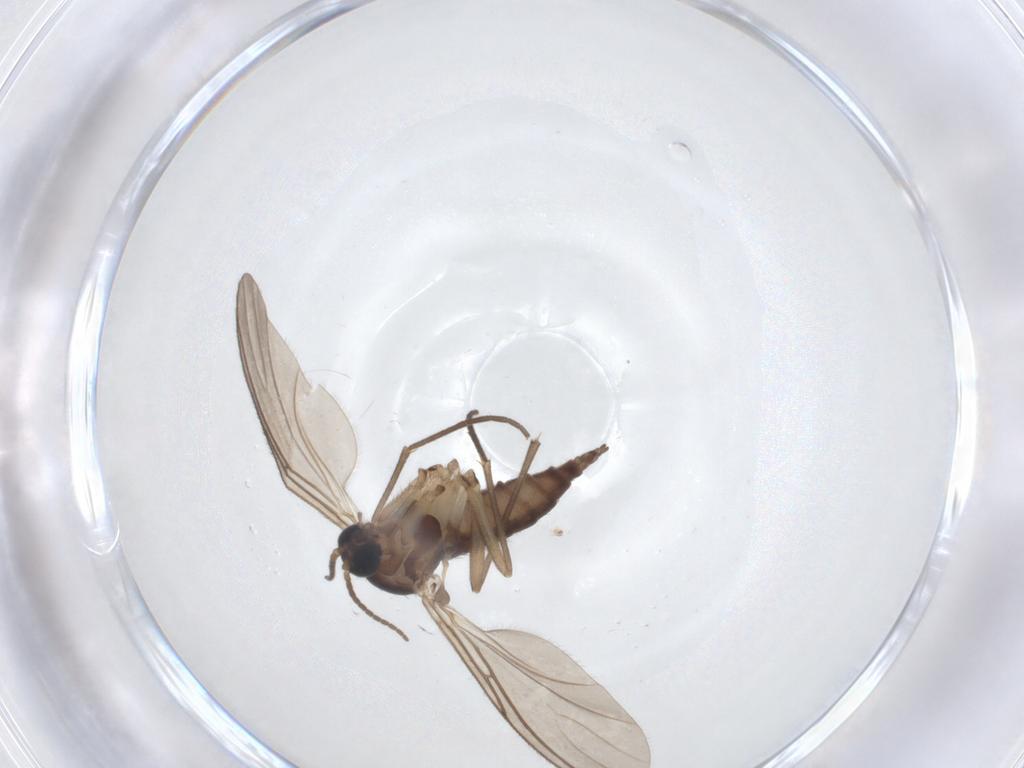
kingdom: Animalia
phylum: Arthropoda
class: Insecta
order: Diptera
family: Sciaridae
